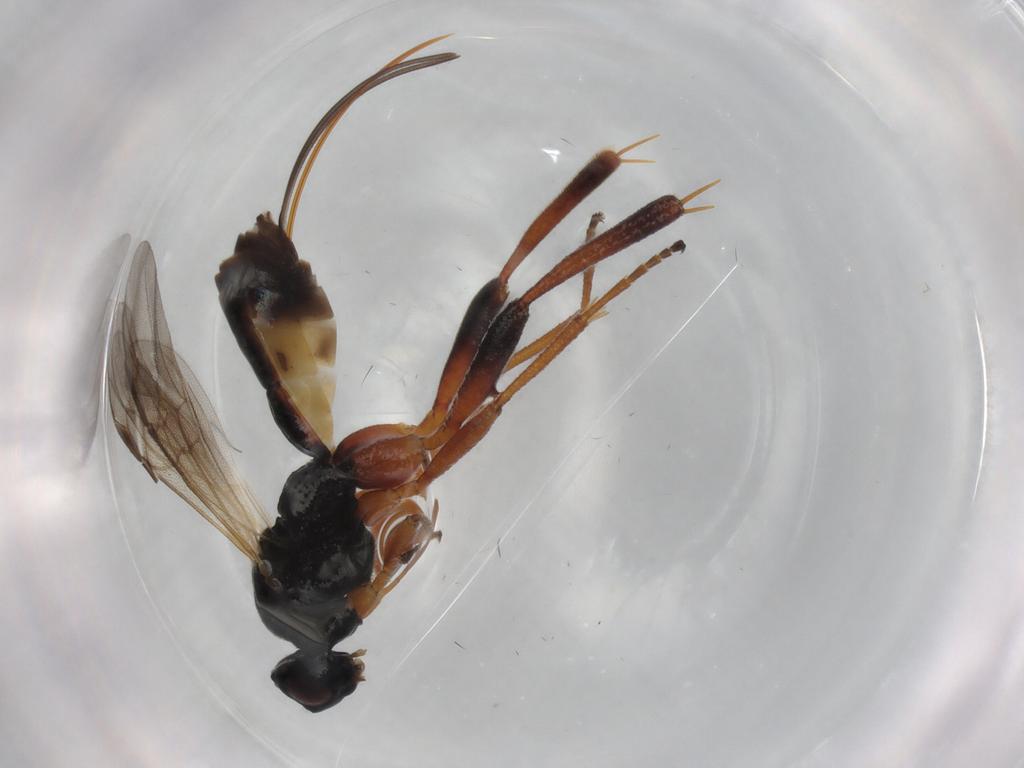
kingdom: Animalia
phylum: Arthropoda
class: Insecta
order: Hymenoptera
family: Braconidae
